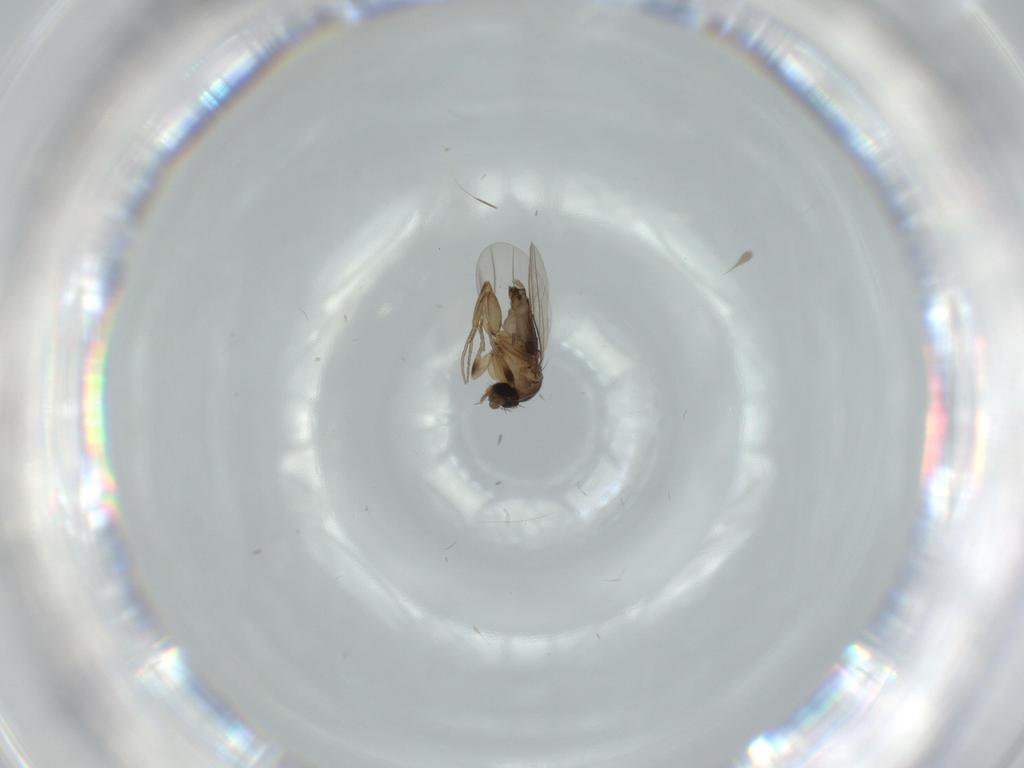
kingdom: Animalia
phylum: Arthropoda
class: Insecta
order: Diptera
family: Phoridae
